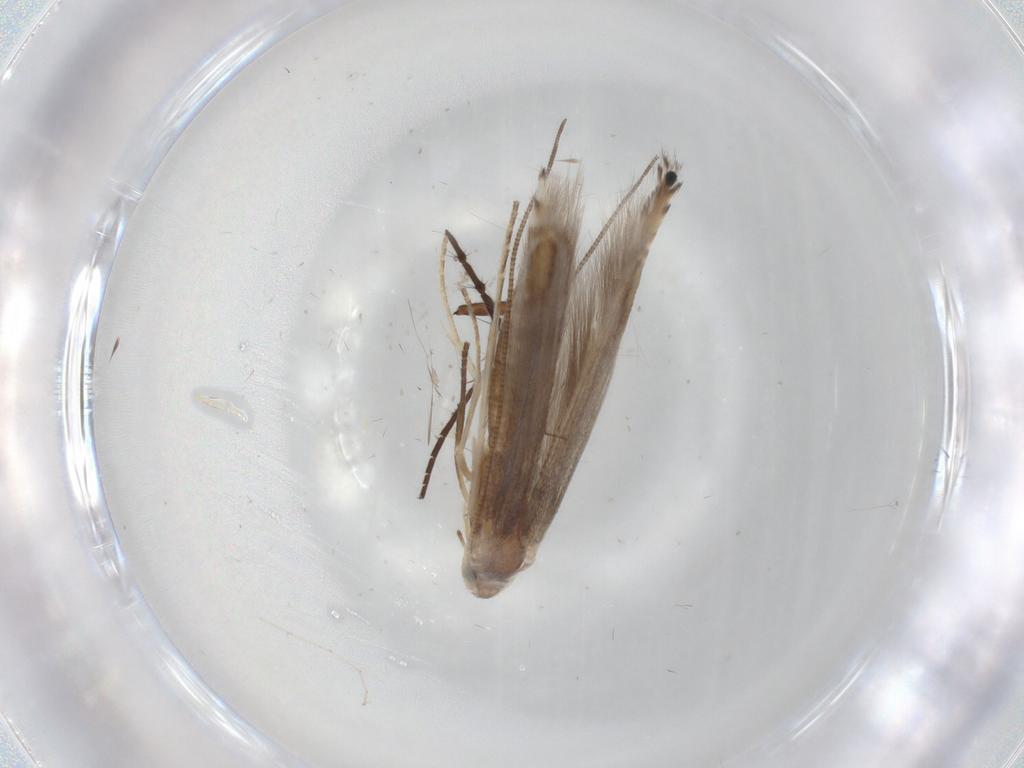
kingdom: Animalia
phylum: Arthropoda
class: Insecta
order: Lepidoptera
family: Lyonetiidae
